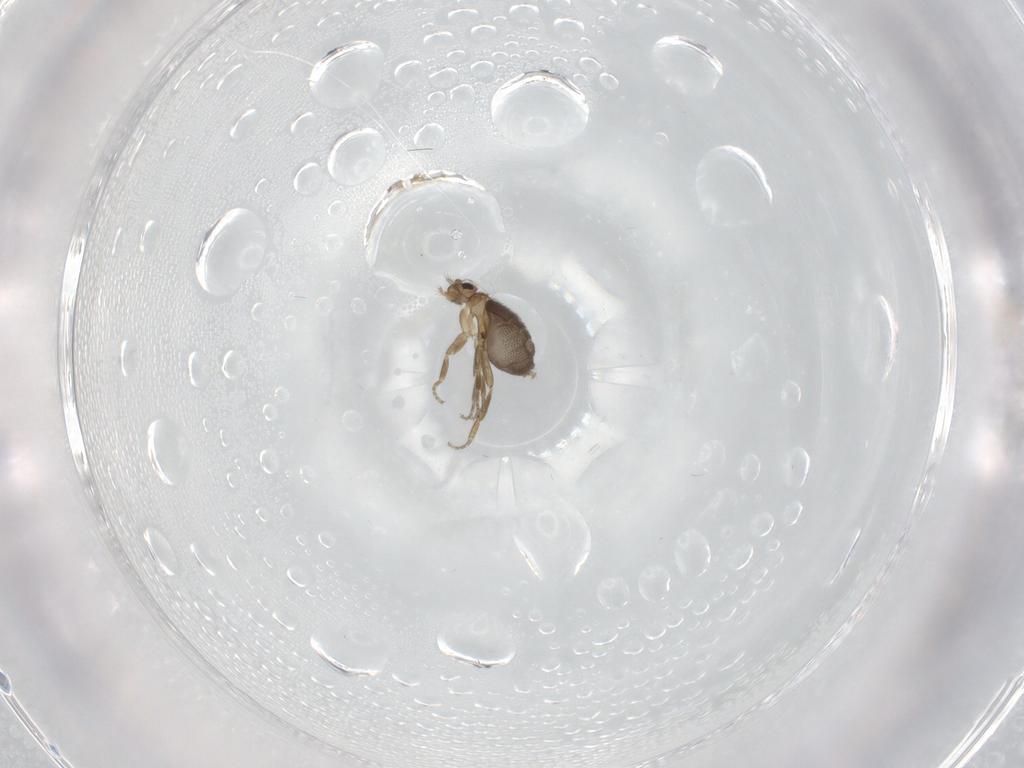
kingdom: Animalia
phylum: Arthropoda
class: Insecta
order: Diptera
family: Phoridae
